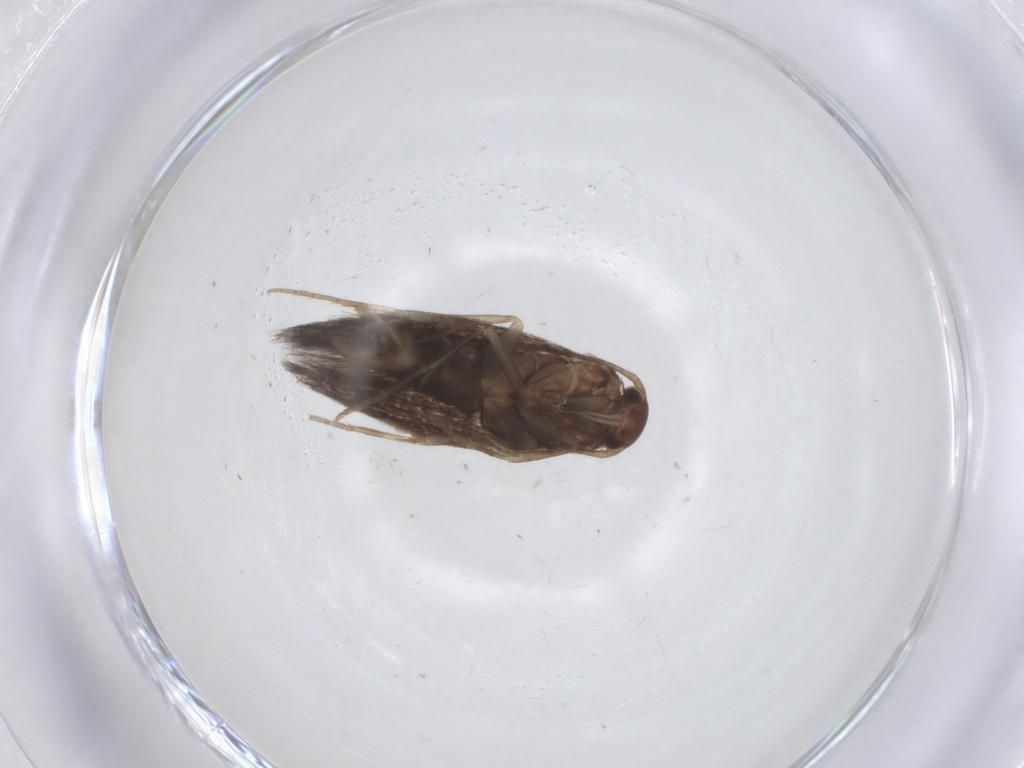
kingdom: Animalia
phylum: Arthropoda
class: Insecta
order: Lepidoptera
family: Elachistidae
